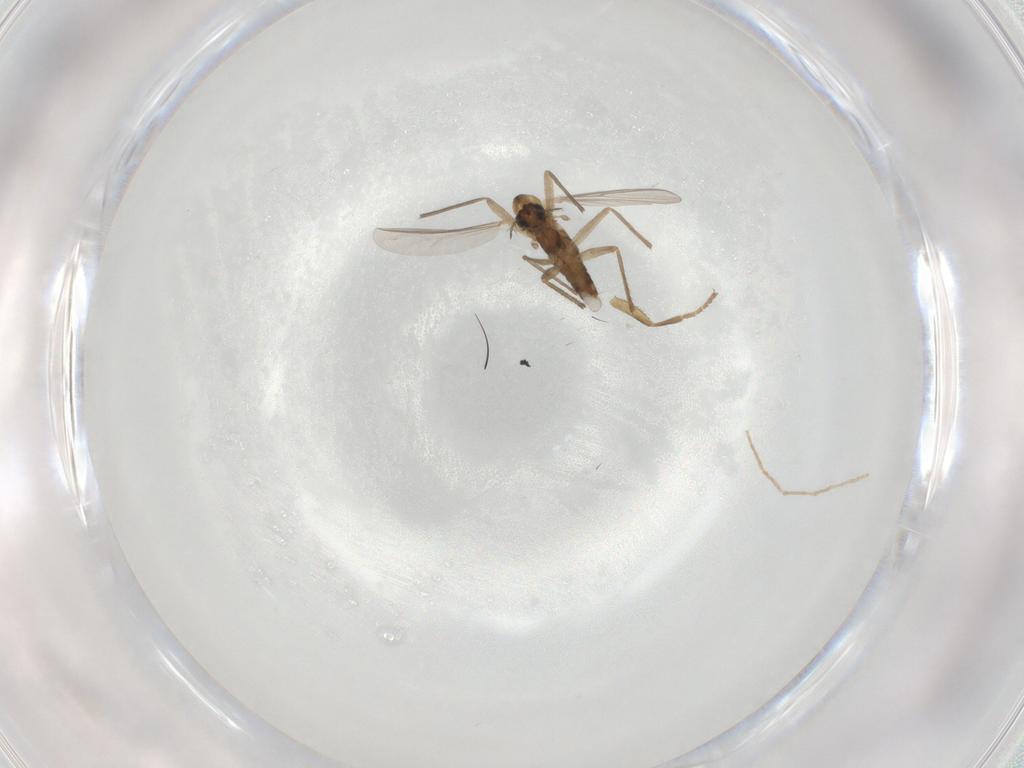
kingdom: Animalia
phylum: Arthropoda
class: Insecta
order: Diptera
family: Chironomidae
